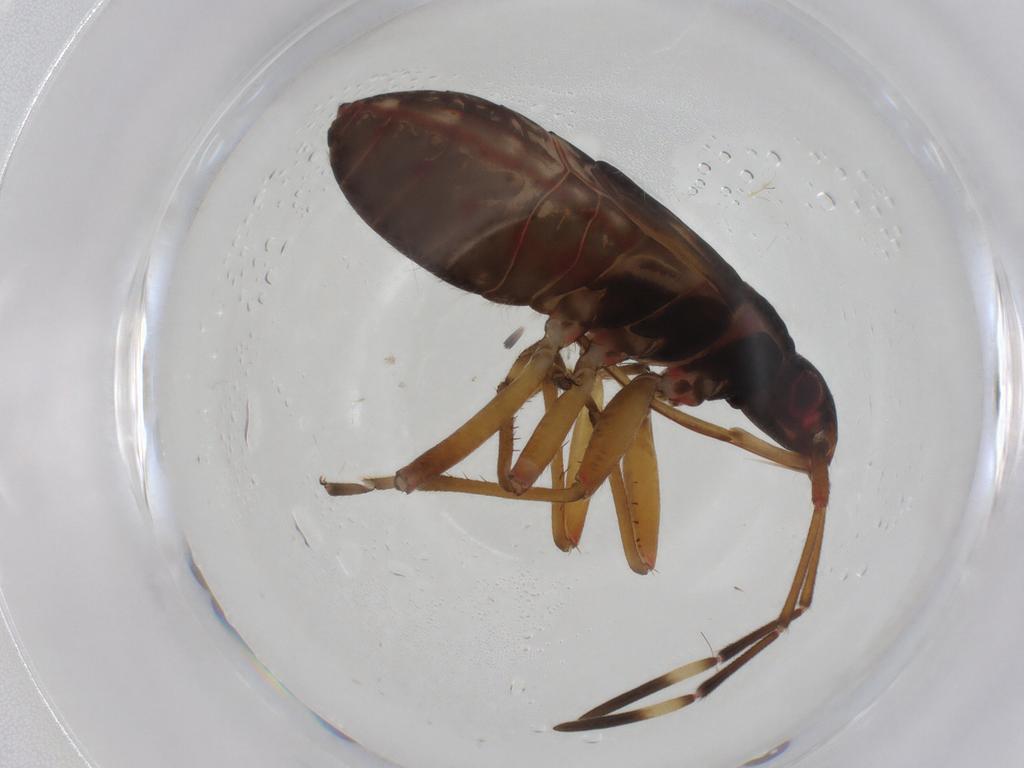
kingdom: Animalia
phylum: Arthropoda
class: Insecta
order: Hemiptera
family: Rhyparochromidae
